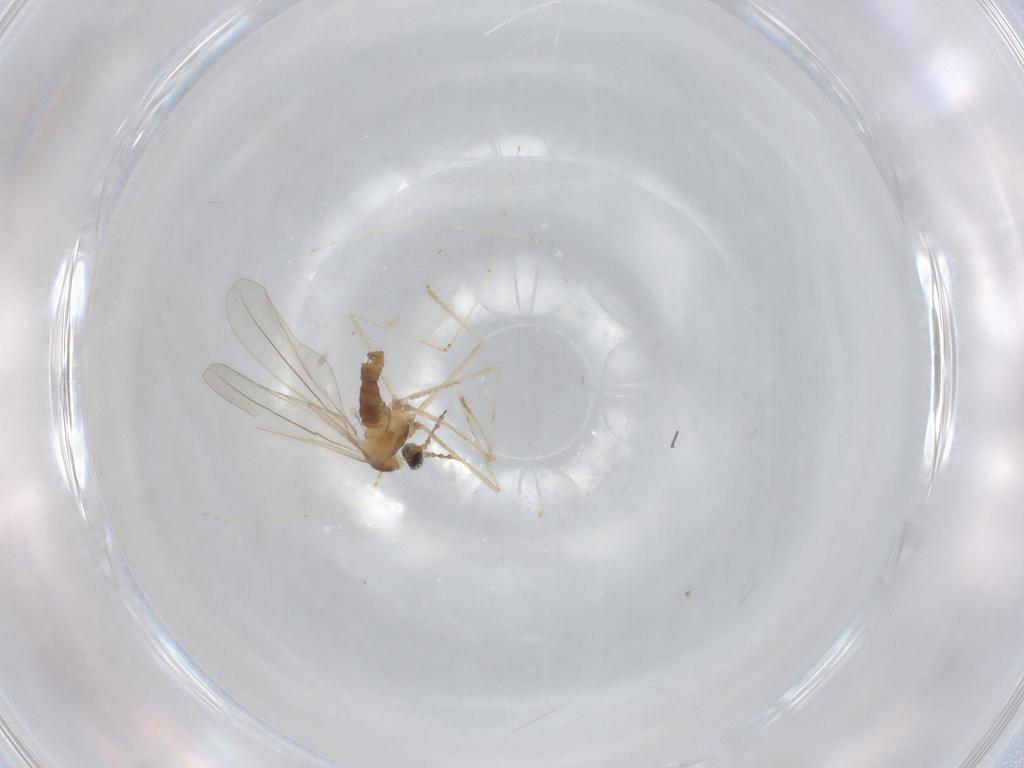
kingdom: Animalia
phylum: Arthropoda
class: Insecta
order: Diptera
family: Cecidomyiidae
